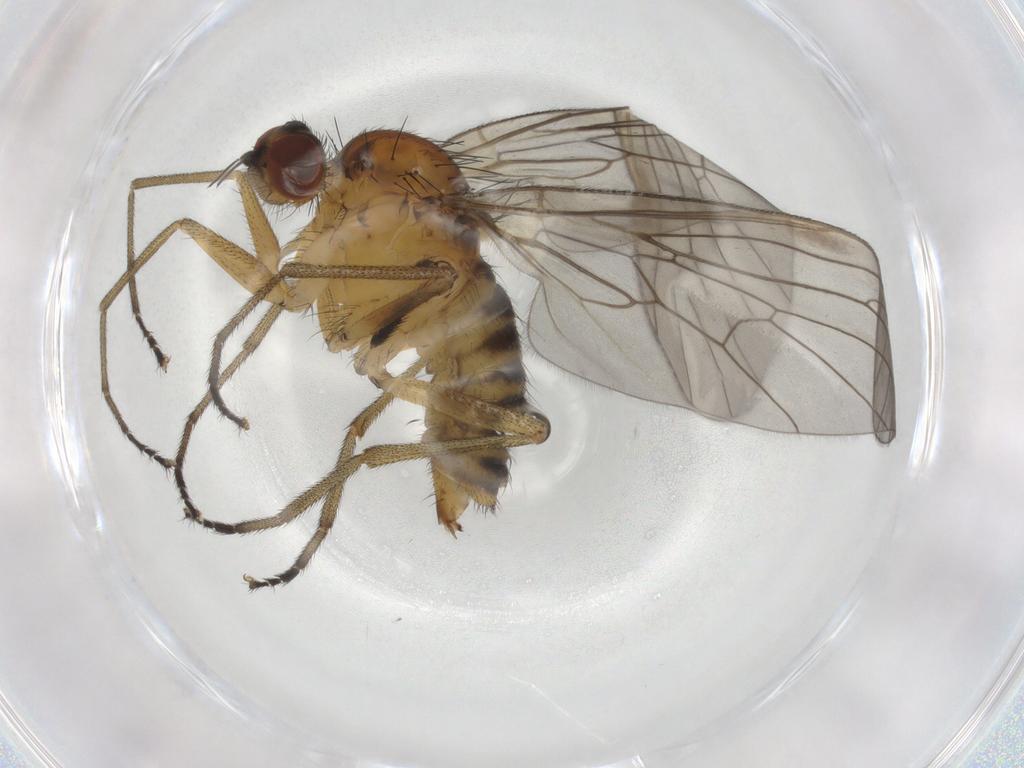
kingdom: Animalia
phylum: Arthropoda
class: Insecta
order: Diptera
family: Brachystomatidae
